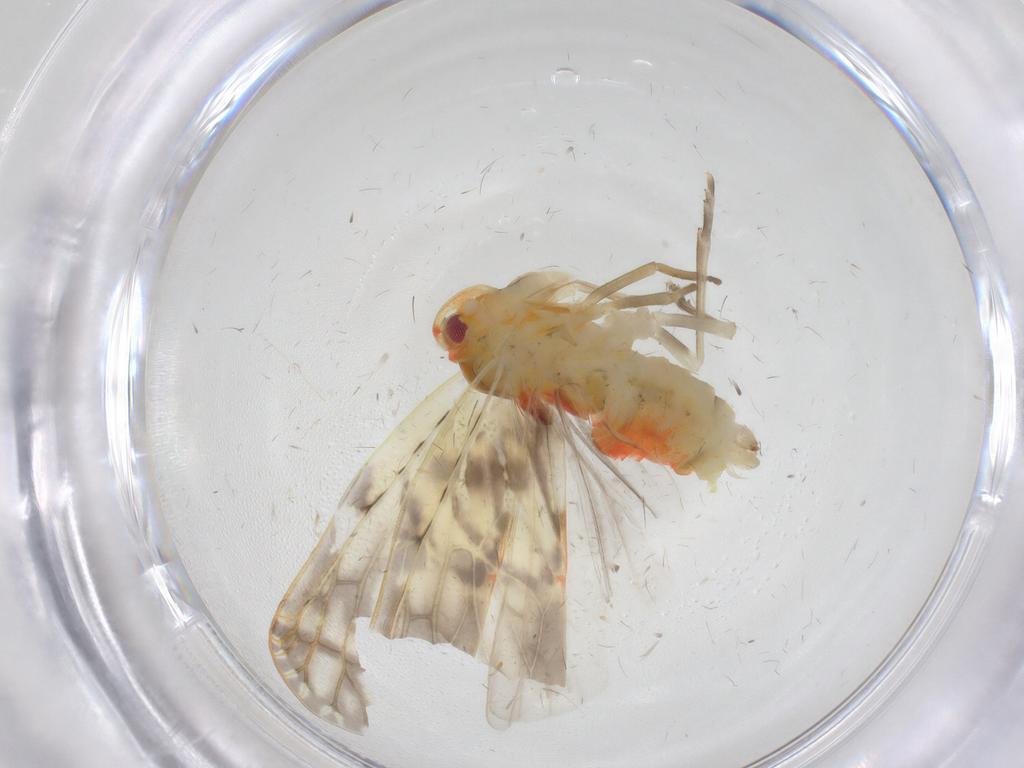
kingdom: Animalia
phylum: Arthropoda
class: Insecta
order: Hemiptera
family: Derbidae
